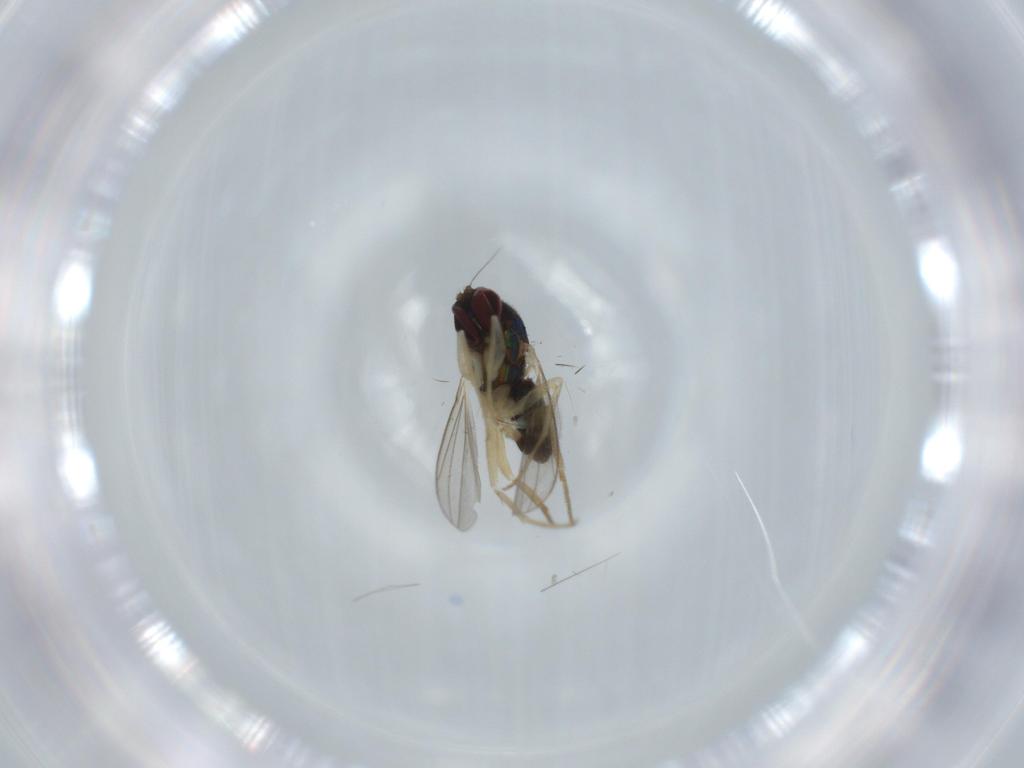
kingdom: Animalia
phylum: Arthropoda
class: Insecta
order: Diptera
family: Dolichopodidae
